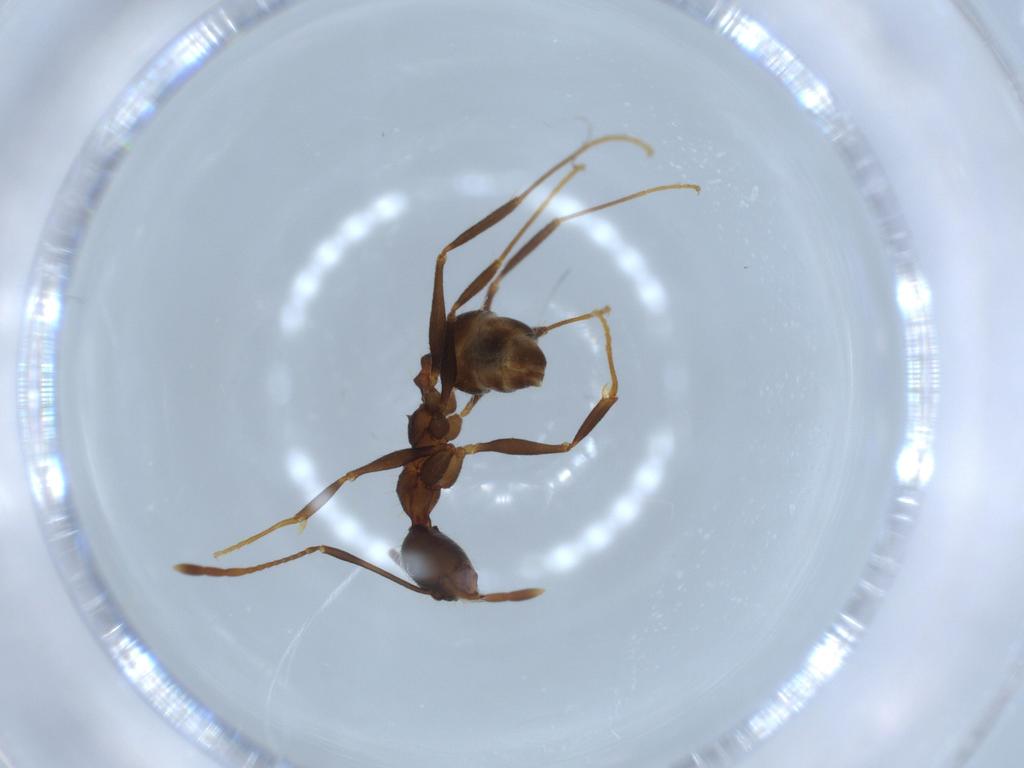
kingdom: Animalia
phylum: Arthropoda
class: Insecta
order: Hymenoptera
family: Formicidae
